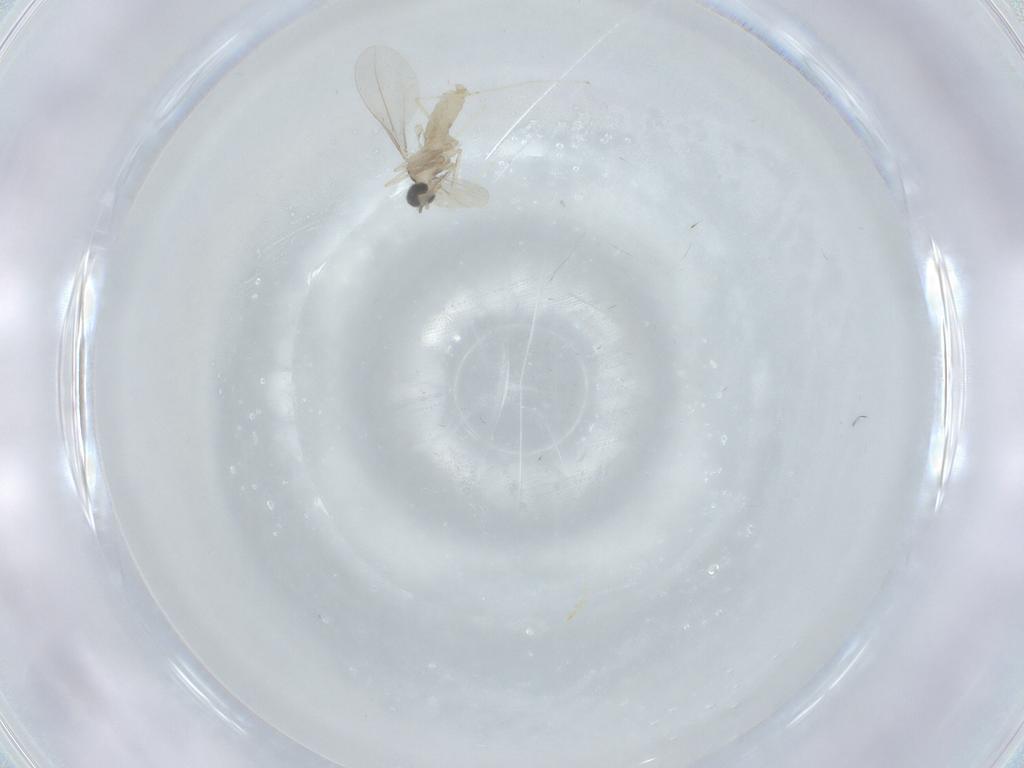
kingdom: Animalia
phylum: Arthropoda
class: Insecta
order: Diptera
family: Cecidomyiidae
